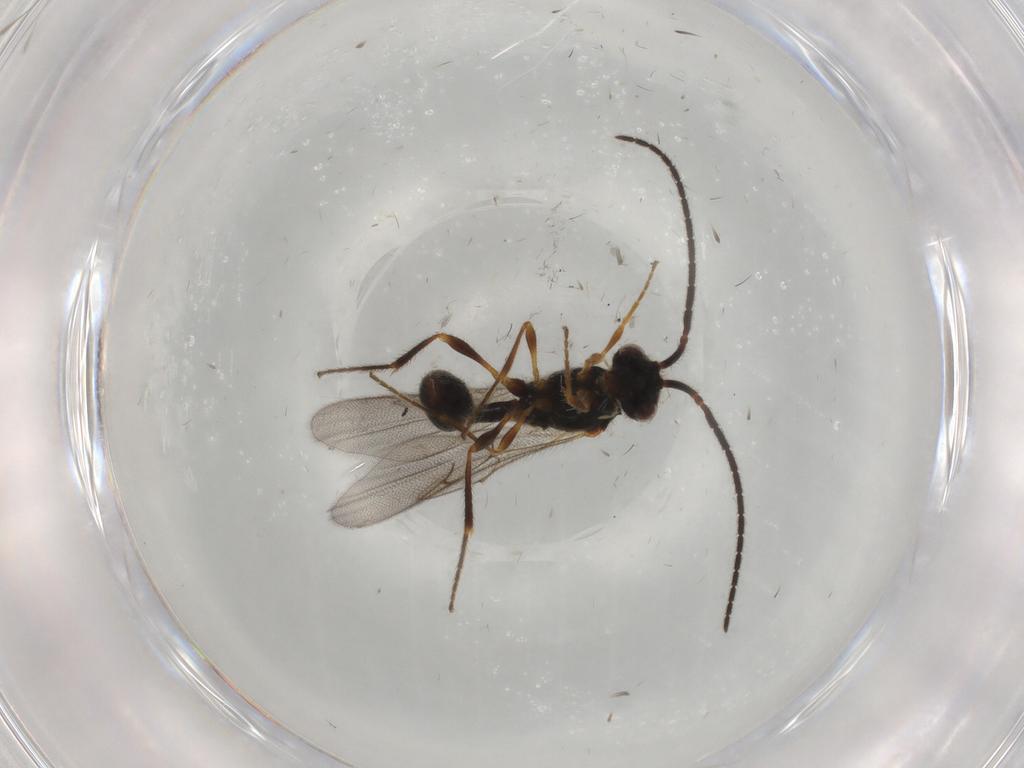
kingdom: Animalia
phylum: Arthropoda
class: Insecta
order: Hymenoptera
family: Diapriidae
